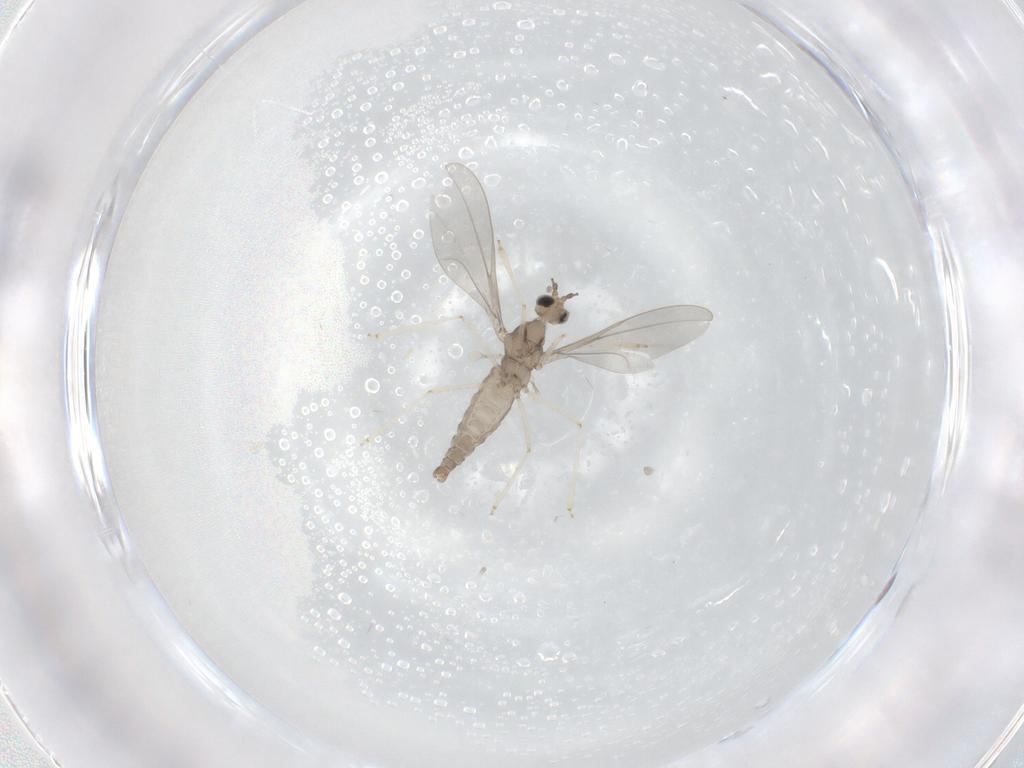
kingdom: Animalia
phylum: Arthropoda
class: Insecta
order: Diptera
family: Cecidomyiidae
